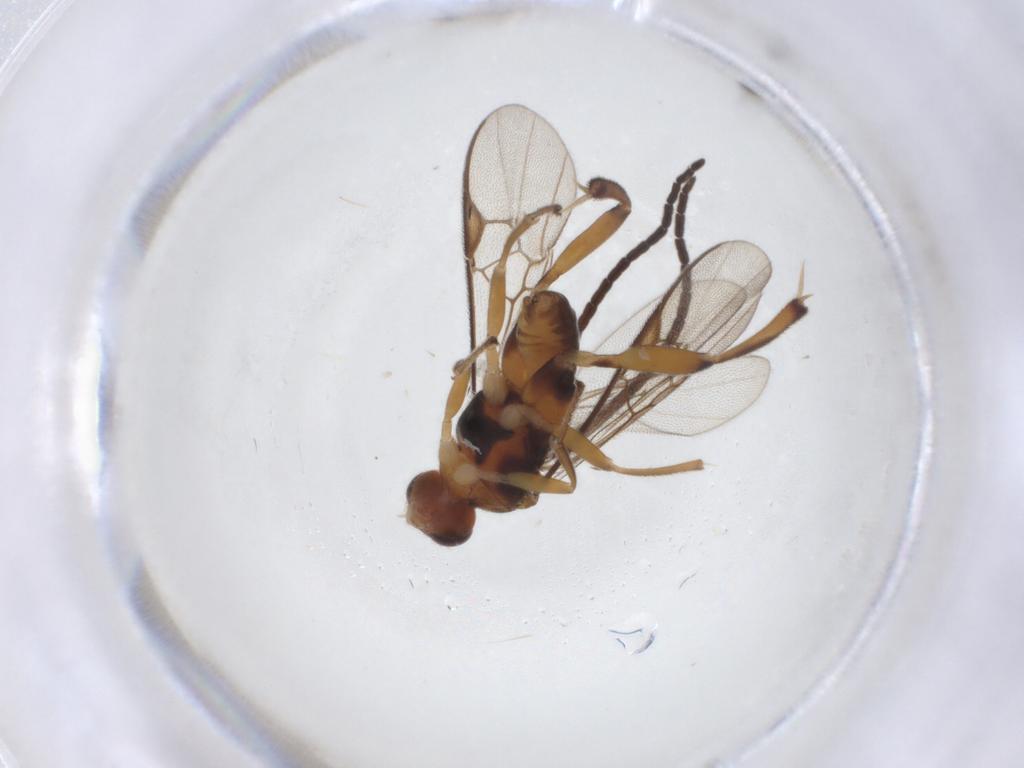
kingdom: Animalia
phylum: Arthropoda
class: Insecta
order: Hymenoptera
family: Braconidae
